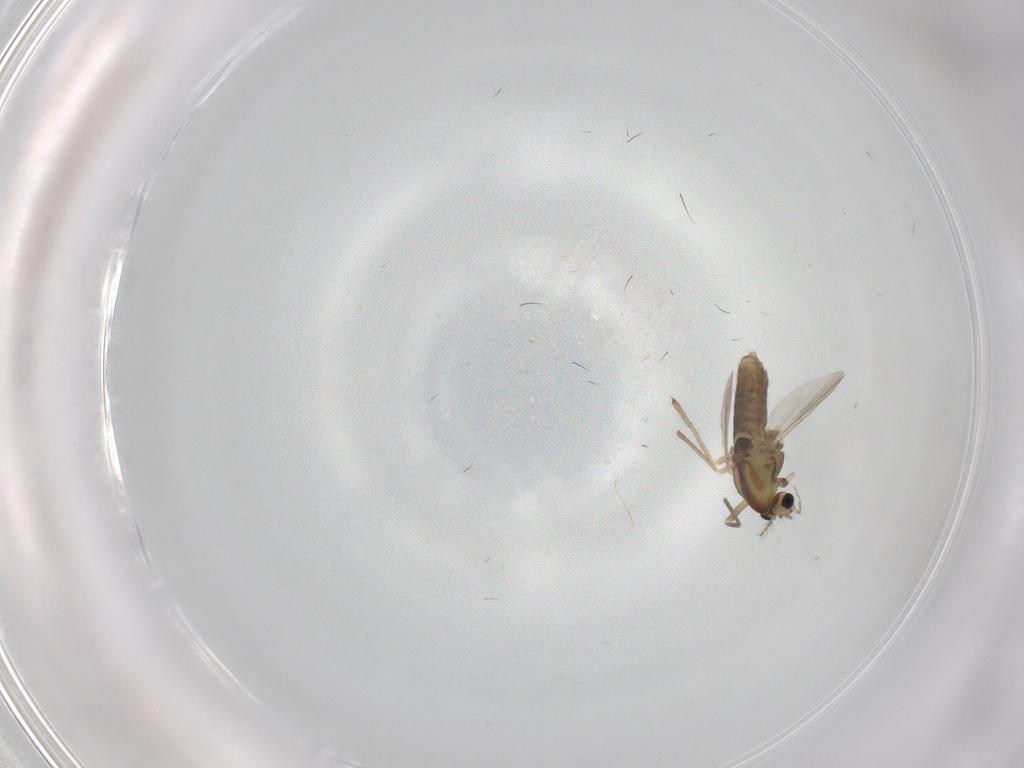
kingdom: Animalia
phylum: Arthropoda
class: Insecta
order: Diptera
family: Chironomidae
